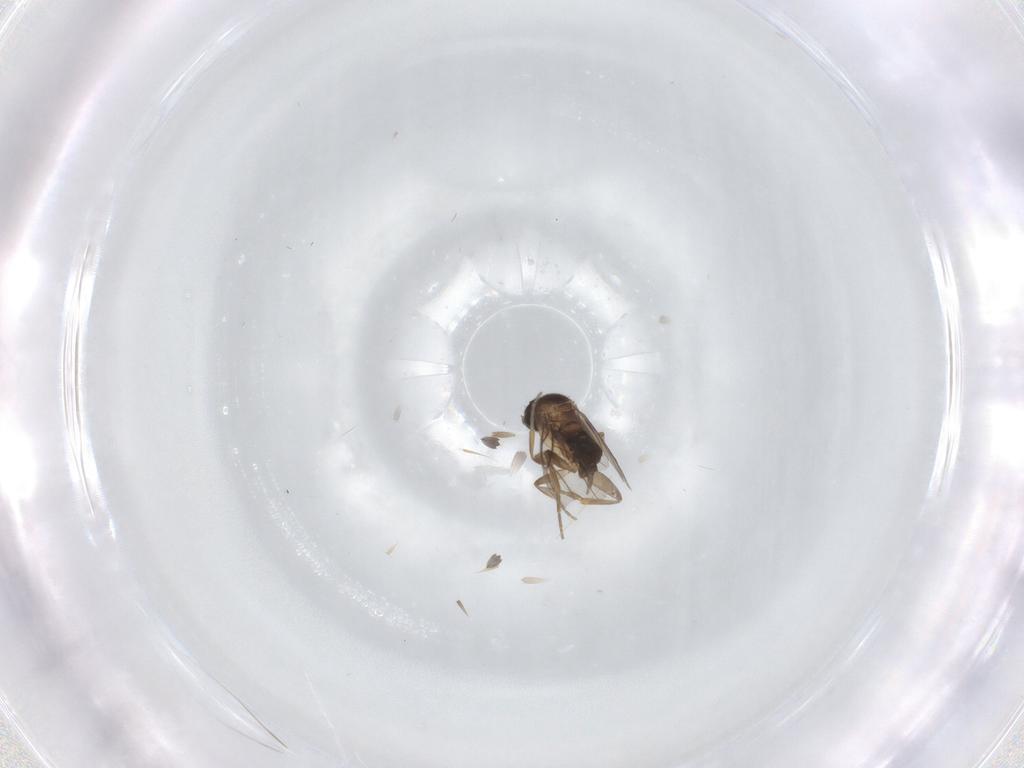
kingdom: Animalia
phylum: Arthropoda
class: Insecta
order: Diptera
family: Phoridae
